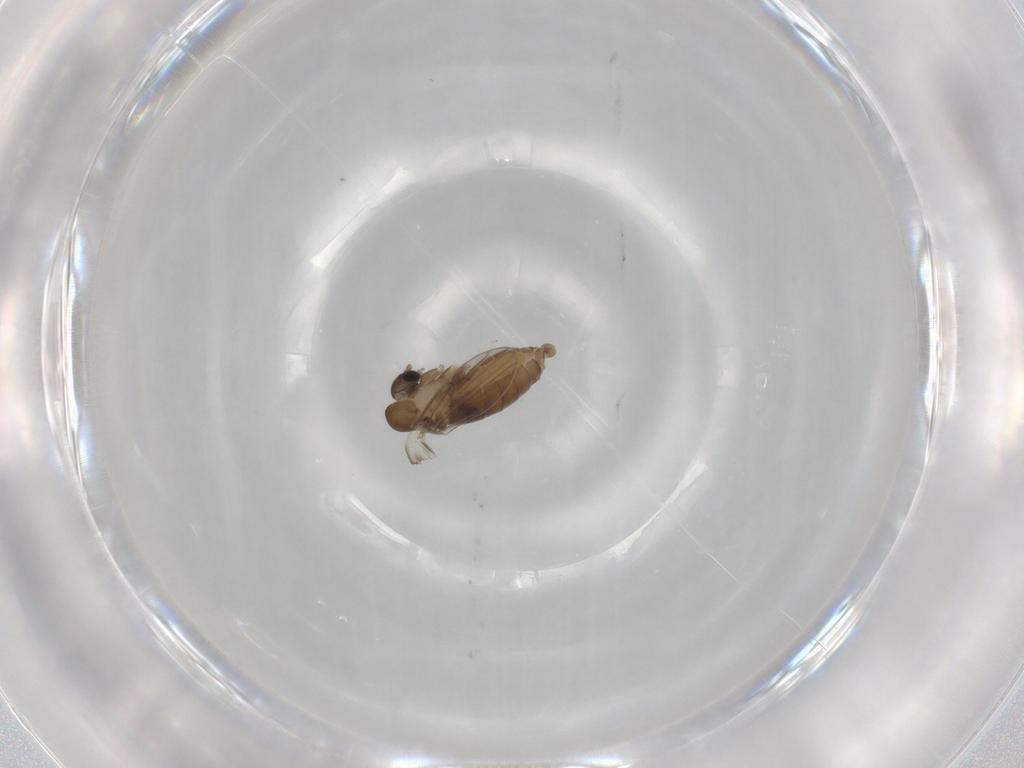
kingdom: Animalia
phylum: Arthropoda
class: Insecta
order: Diptera
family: Psychodidae
